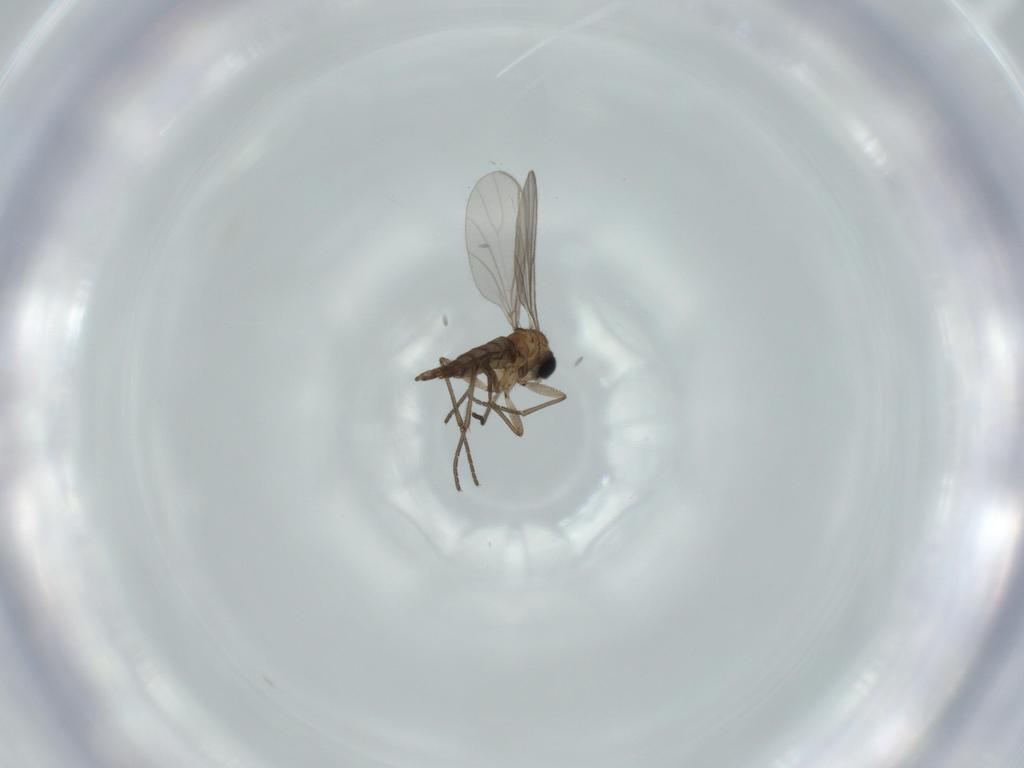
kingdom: Animalia
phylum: Arthropoda
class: Insecta
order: Diptera
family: Sciaridae
